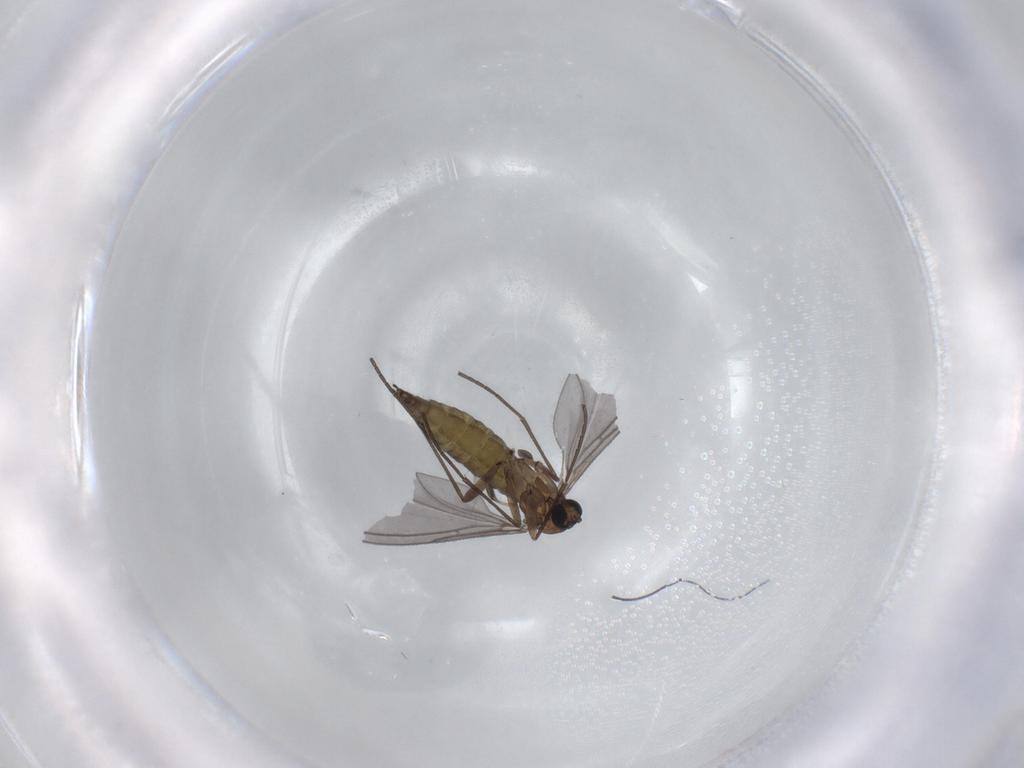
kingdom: Animalia
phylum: Arthropoda
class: Insecta
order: Diptera
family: Sciaridae
